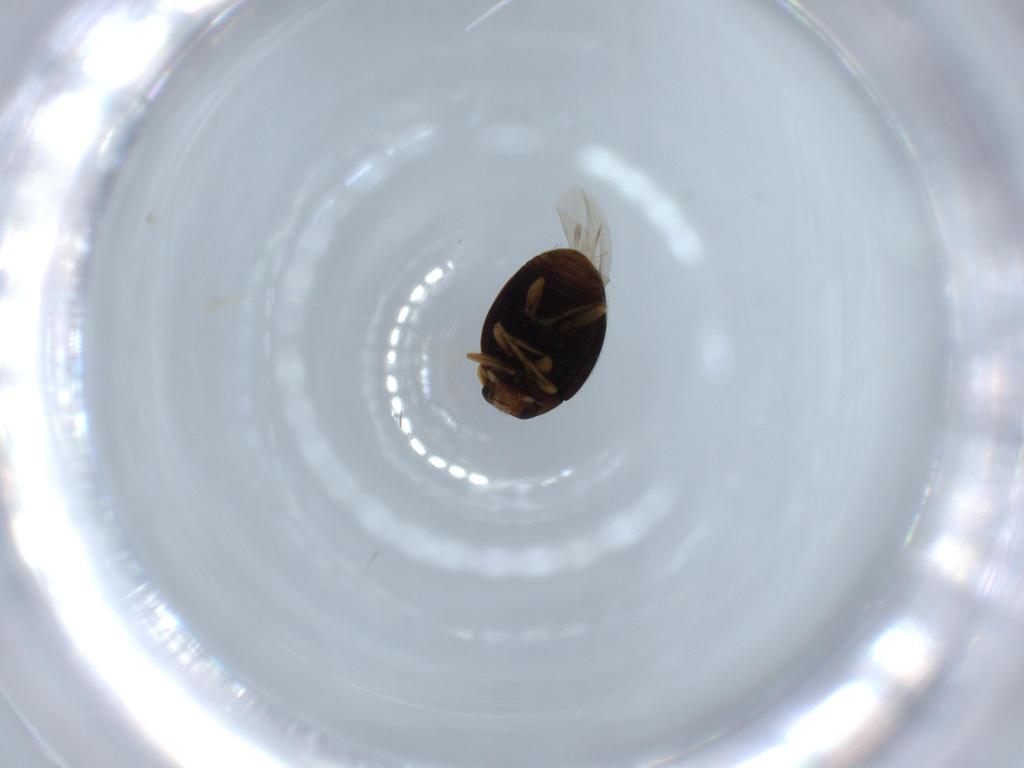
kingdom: Animalia
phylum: Arthropoda
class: Insecta
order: Coleoptera
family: Coccinellidae
